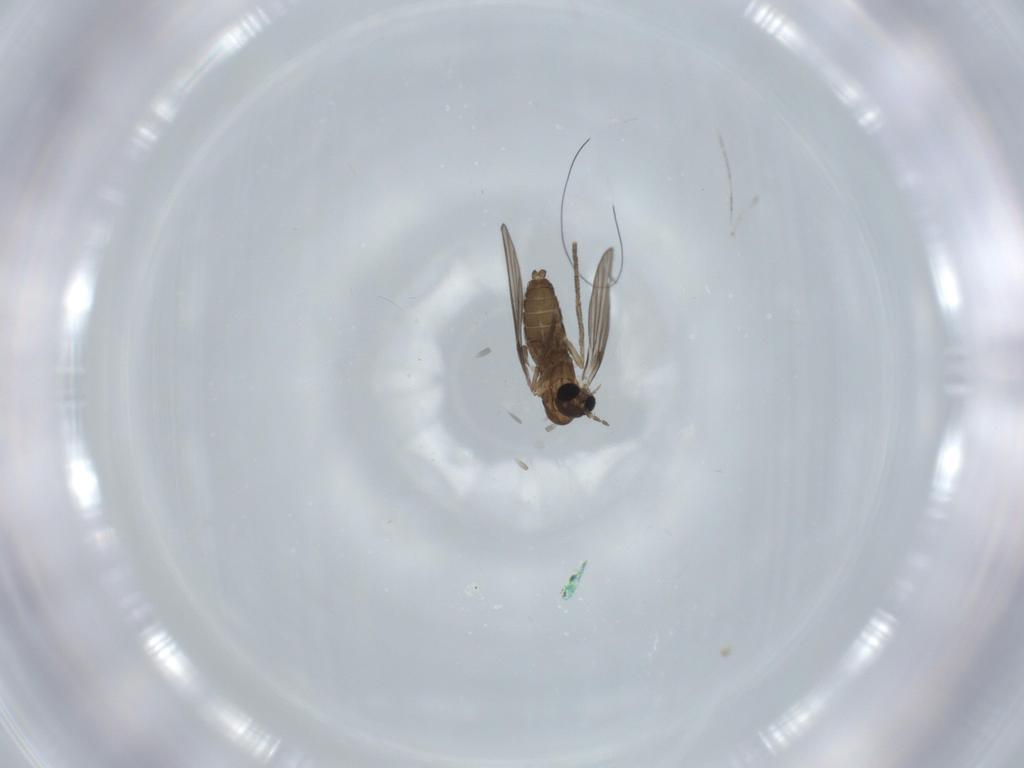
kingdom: Animalia
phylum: Arthropoda
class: Insecta
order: Diptera
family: Psychodidae
